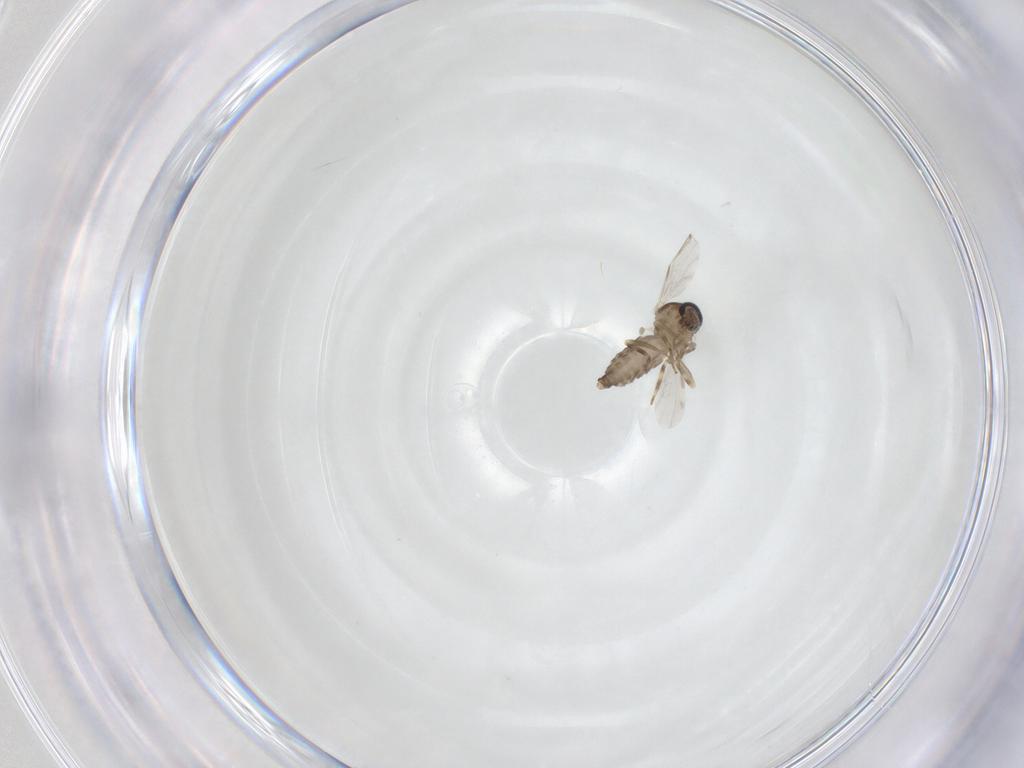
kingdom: Animalia
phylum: Arthropoda
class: Insecta
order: Diptera
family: Ceratopogonidae
